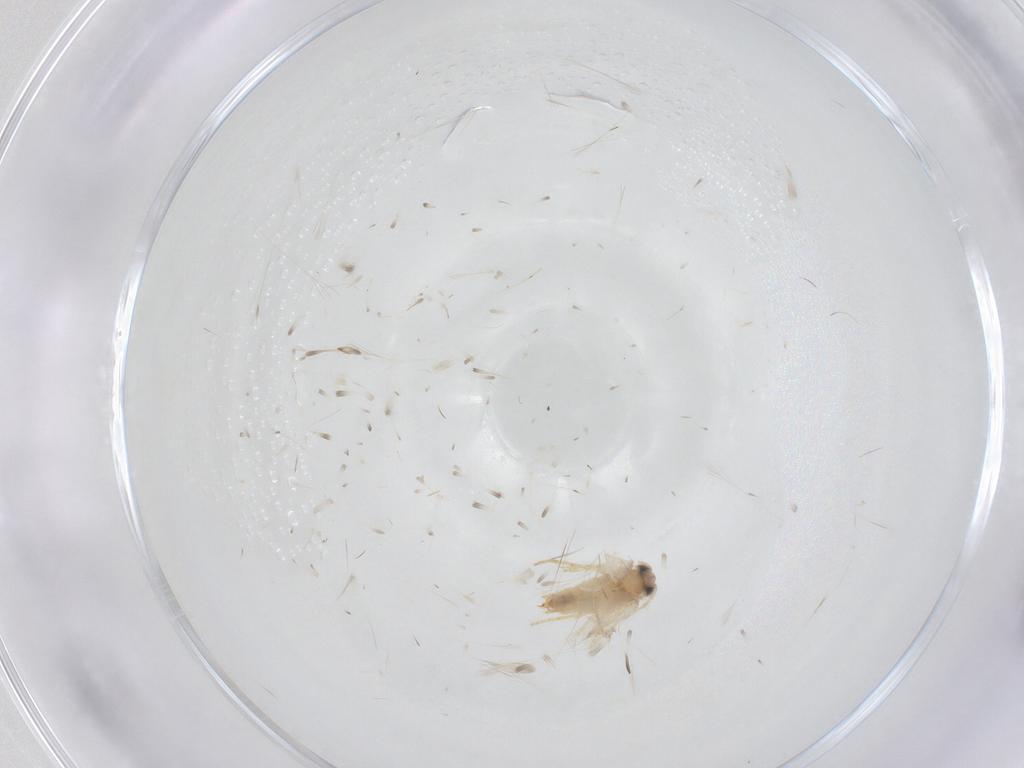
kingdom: Animalia
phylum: Arthropoda
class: Insecta
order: Lepidoptera
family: Crambidae
